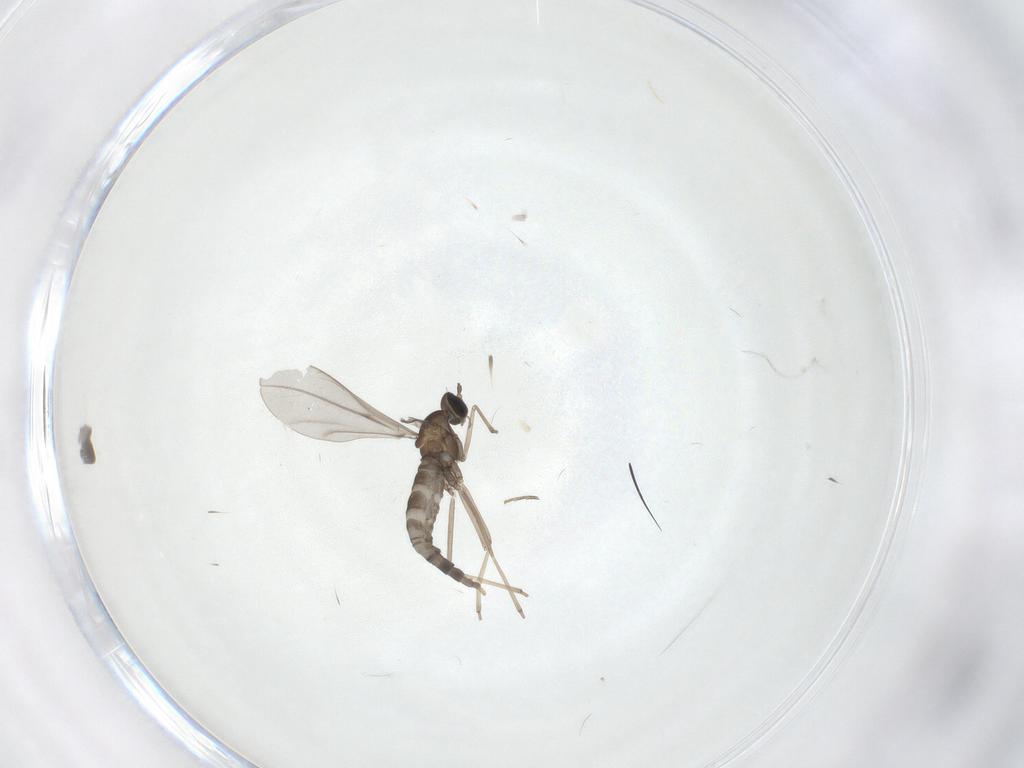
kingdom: Animalia
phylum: Arthropoda
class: Insecta
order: Diptera
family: Cecidomyiidae
